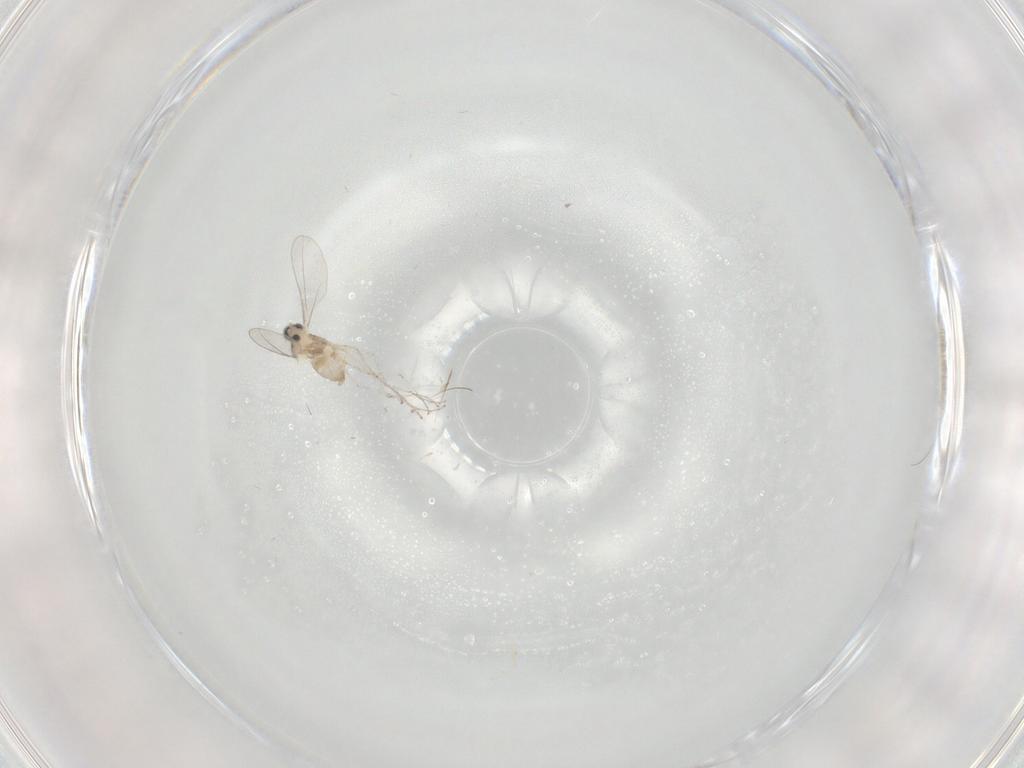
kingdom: Animalia
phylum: Arthropoda
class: Insecta
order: Diptera
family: Cecidomyiidae
